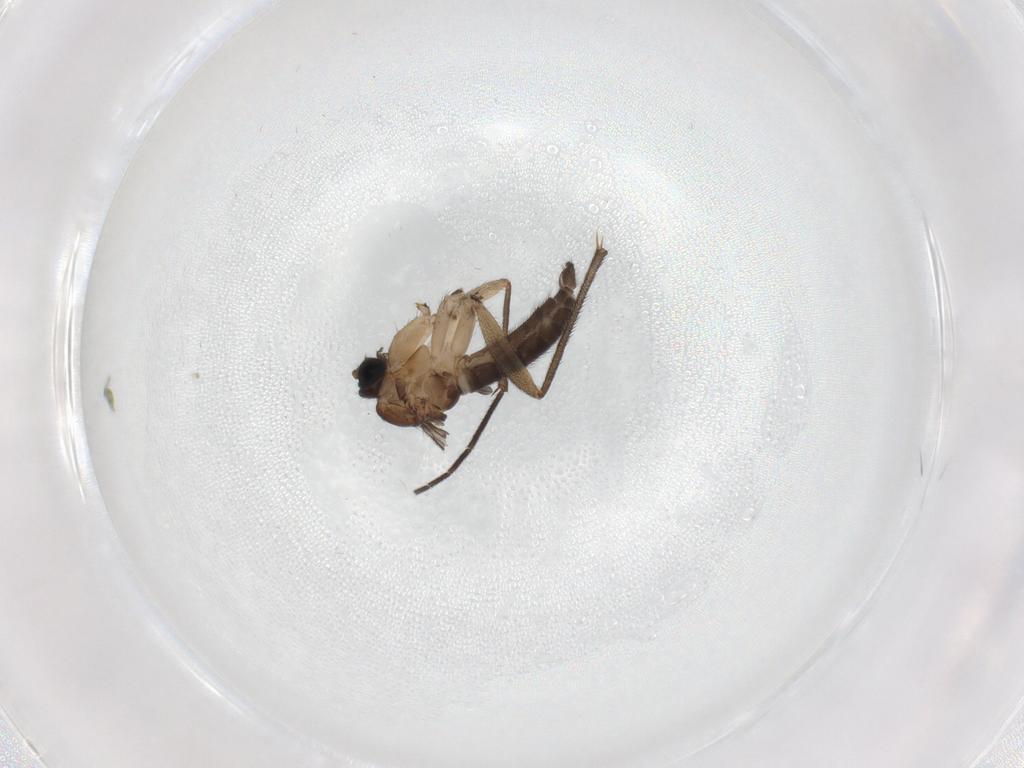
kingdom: Animalia
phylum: Arthropoda
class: Insecta
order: Diptera
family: Sciaridae
